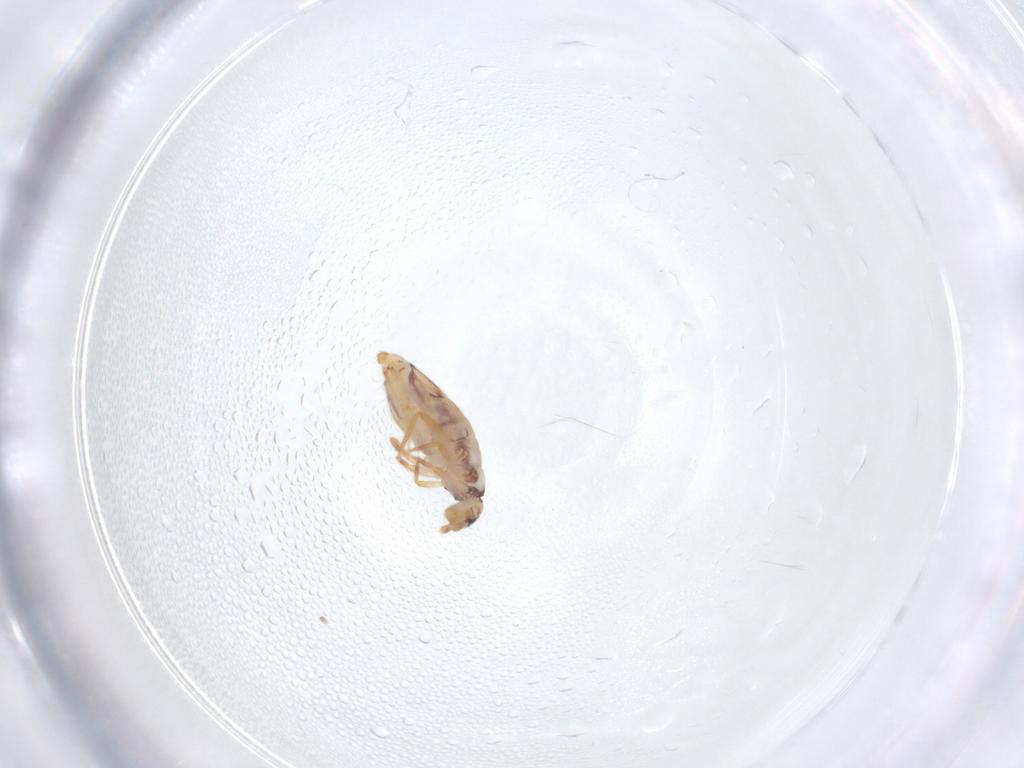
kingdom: Animalia
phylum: Arthropoda
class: Collembola
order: Entomobryomorpha
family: Entomobryidae
